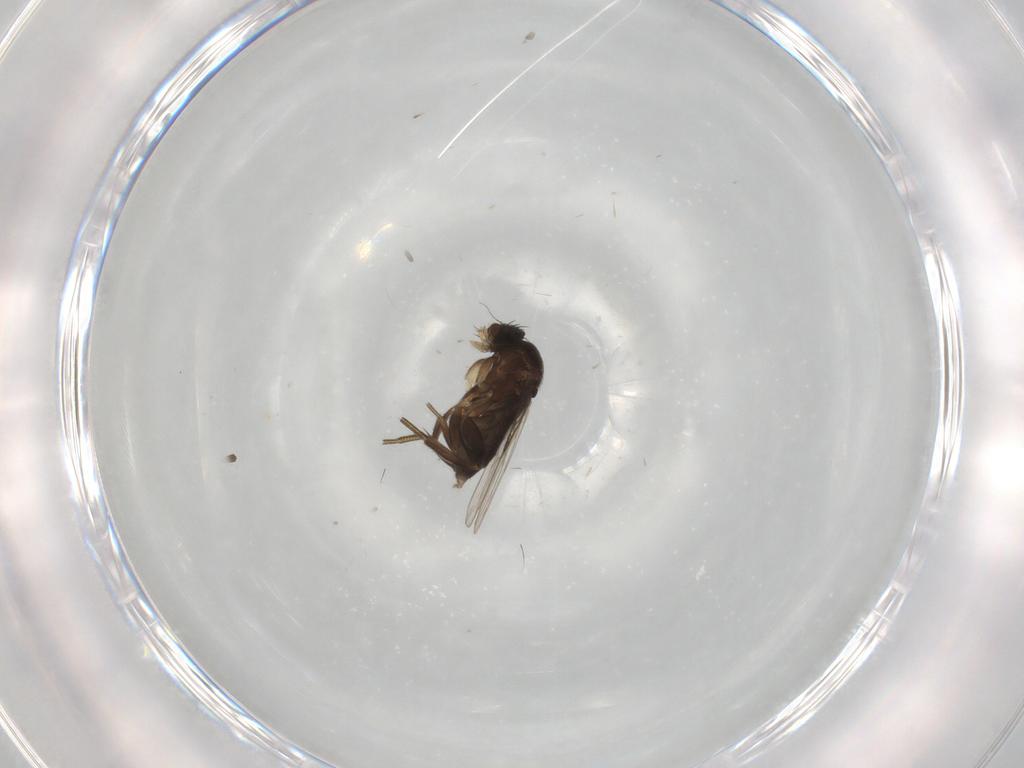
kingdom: Animalia
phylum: Arthropoda
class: Insecta
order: Diptera
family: Phoridae
